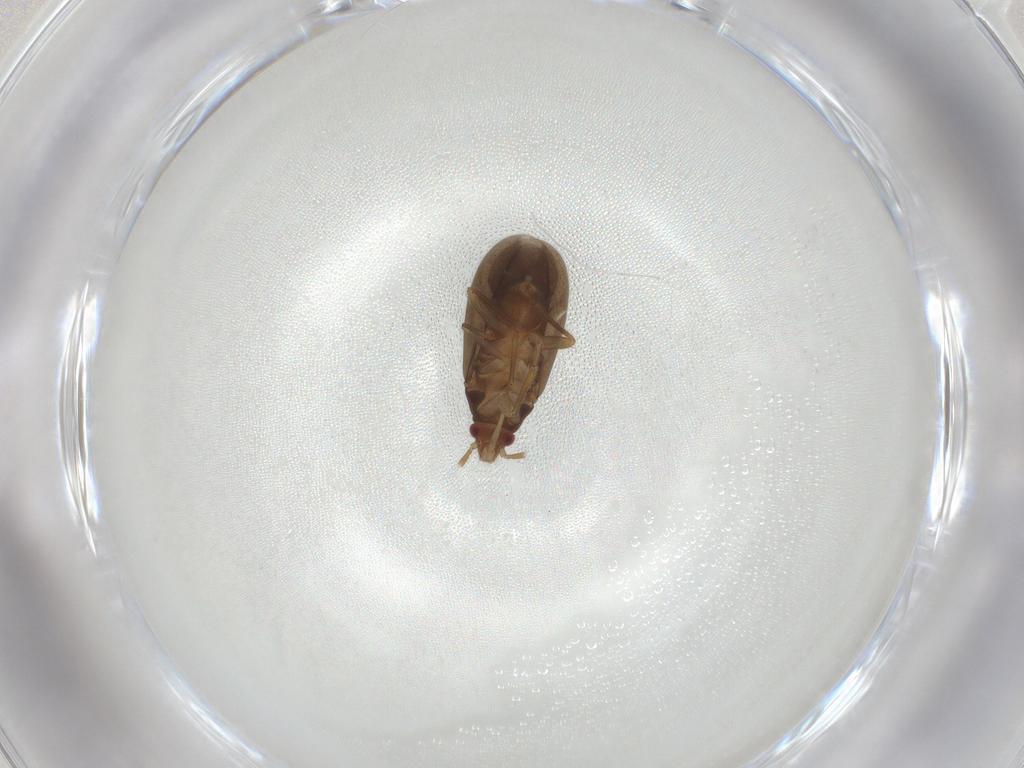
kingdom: Animalia
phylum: Arthropoda
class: Insecta
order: Hemiptera
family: Ceratocombidae
